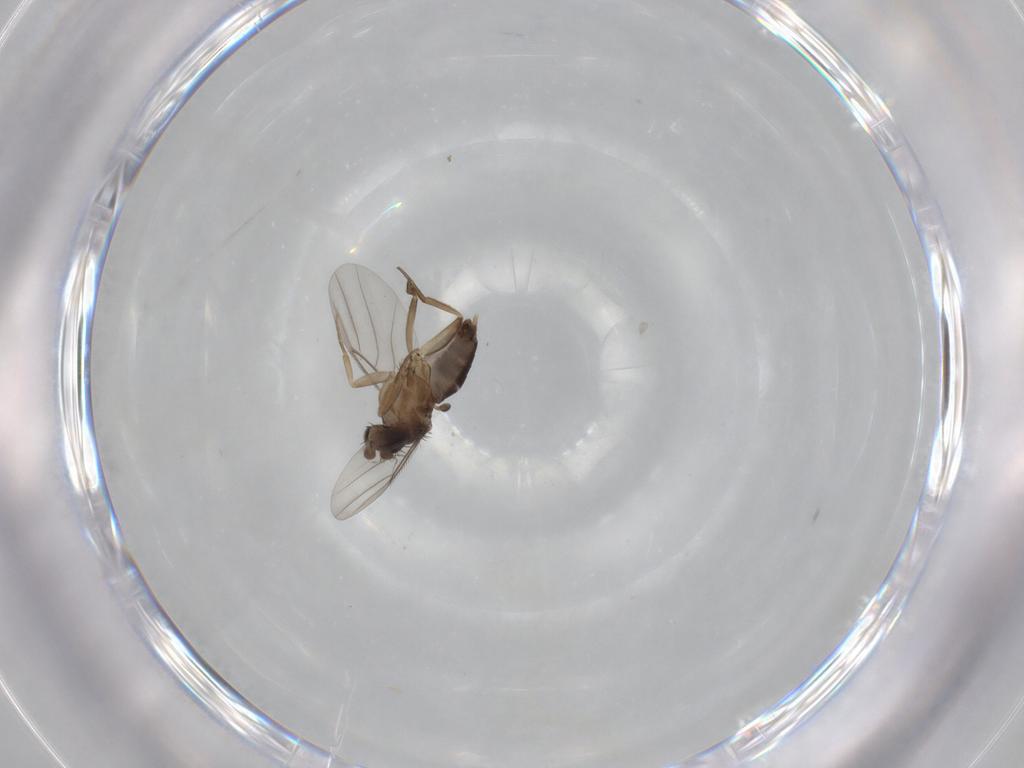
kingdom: Animalia
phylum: Arthropoda
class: Insecta
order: Diptera
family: Phoridae
